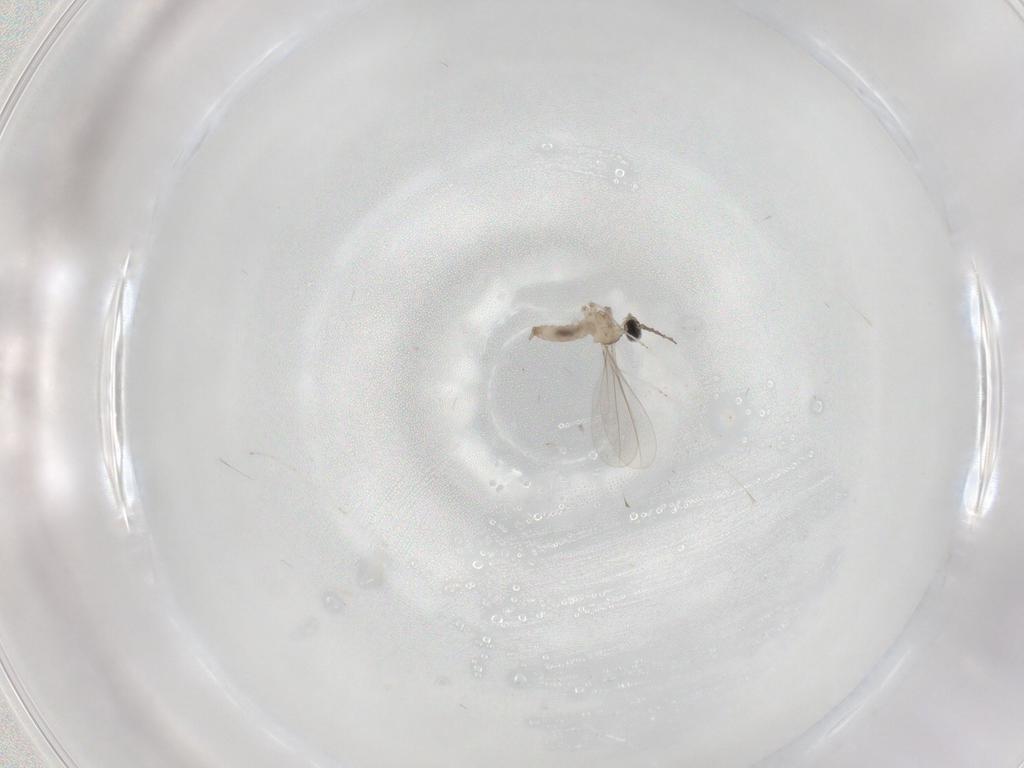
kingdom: Animalia
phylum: Arthropoda
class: Insecta
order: Diptera
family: Cecidomyiidae
